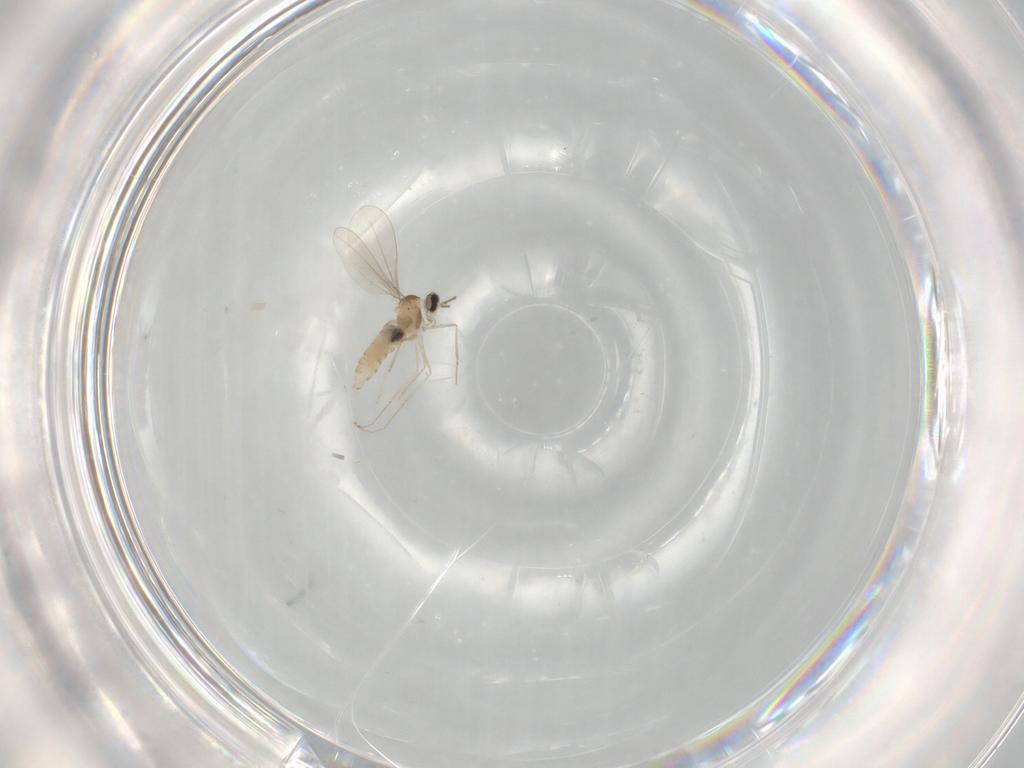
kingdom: Animalia
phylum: Arthropoda
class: Insecta
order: Diptera
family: Cecidomyiidae
